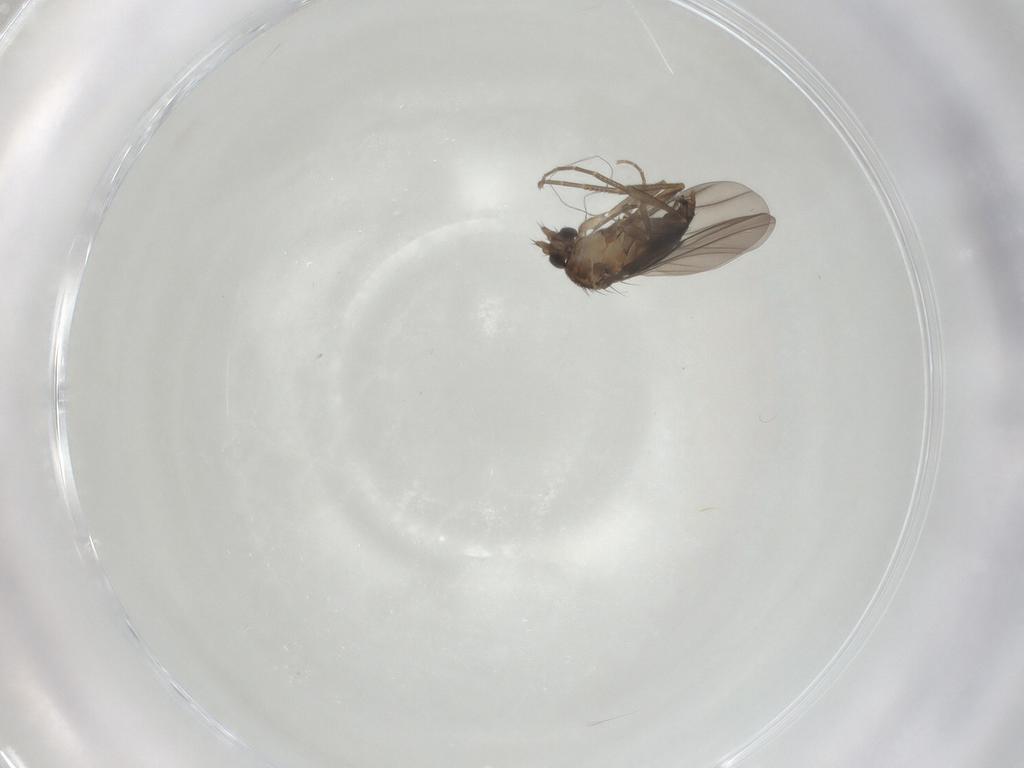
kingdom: Animalia
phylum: Arthropoda
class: Insecta
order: Diptera
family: Phoridae
